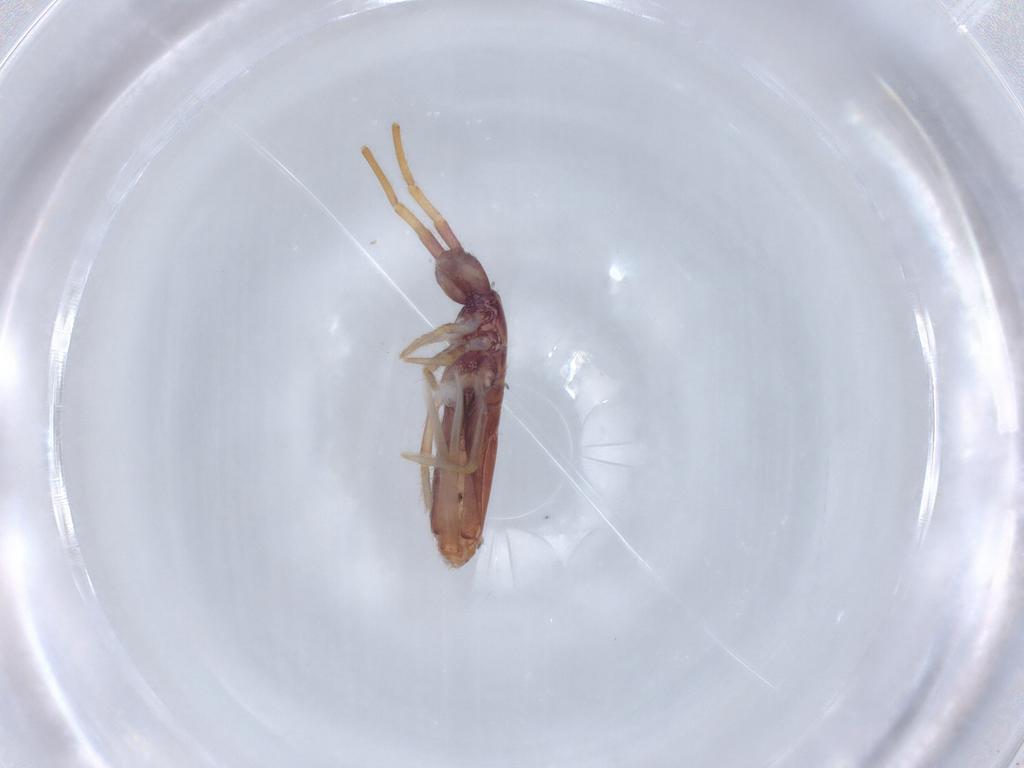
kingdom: Animalia
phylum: Arthropoda
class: Collembola
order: Entomobryomorpha
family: Entomobryidae
